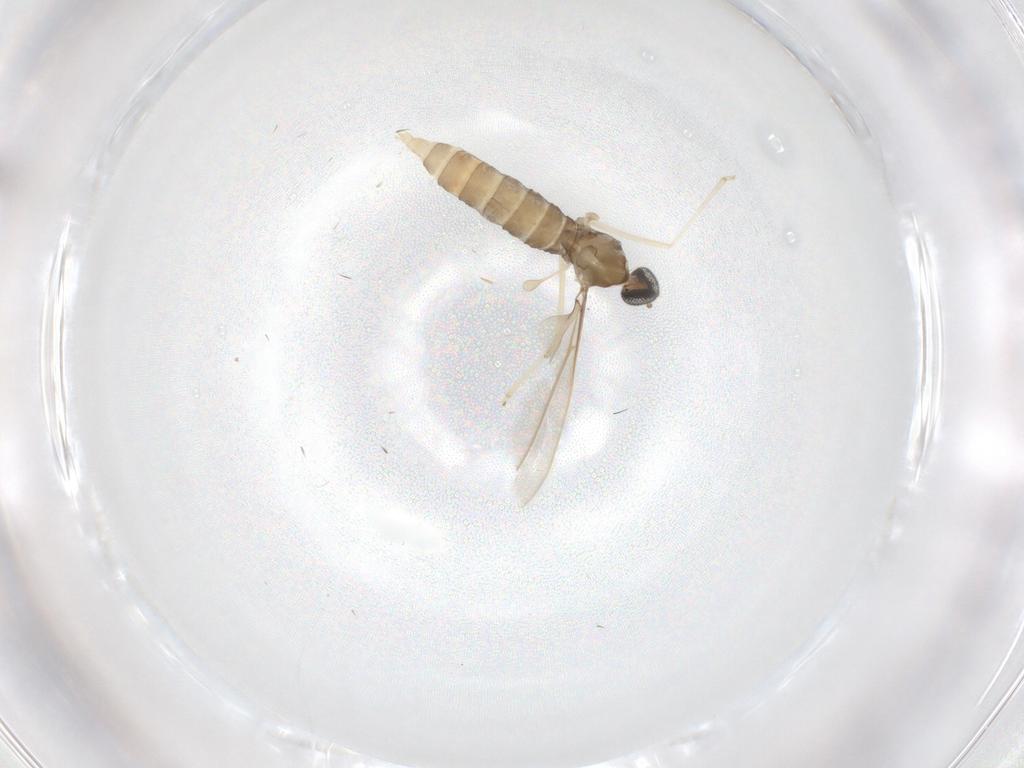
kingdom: Animalia
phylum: Arthropoda
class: Insecta
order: Diptera
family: Cecidomyiidae
